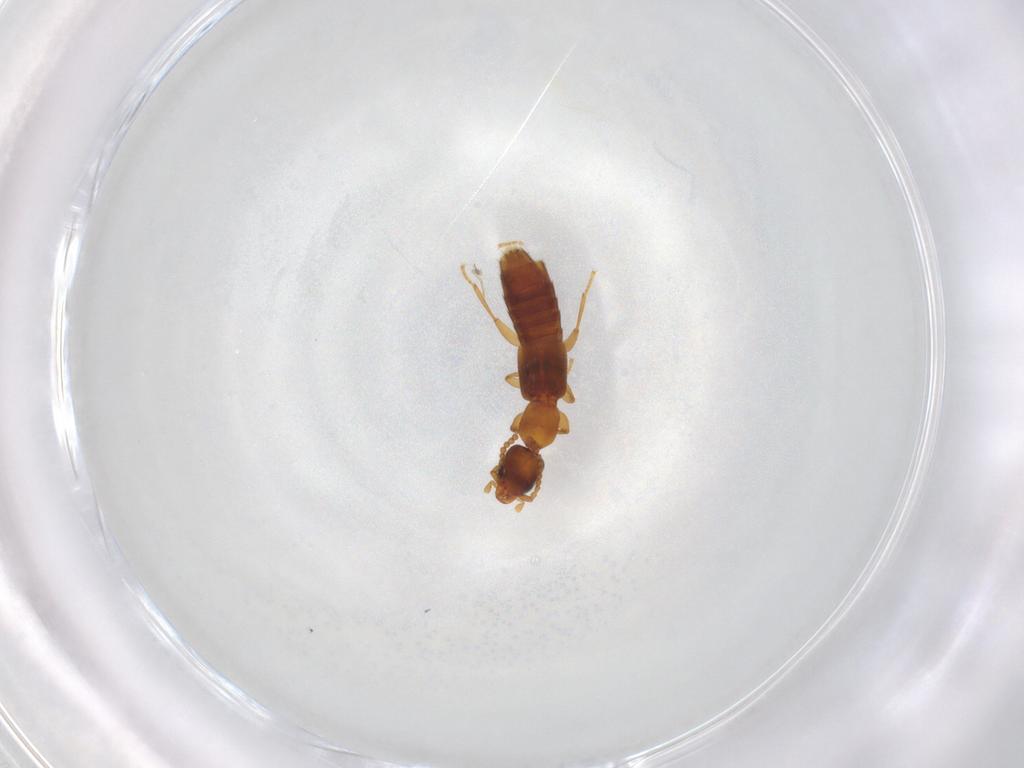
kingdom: Animalia
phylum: Arthropoda
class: Insecta
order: Coleoptera
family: Staphylinidae
